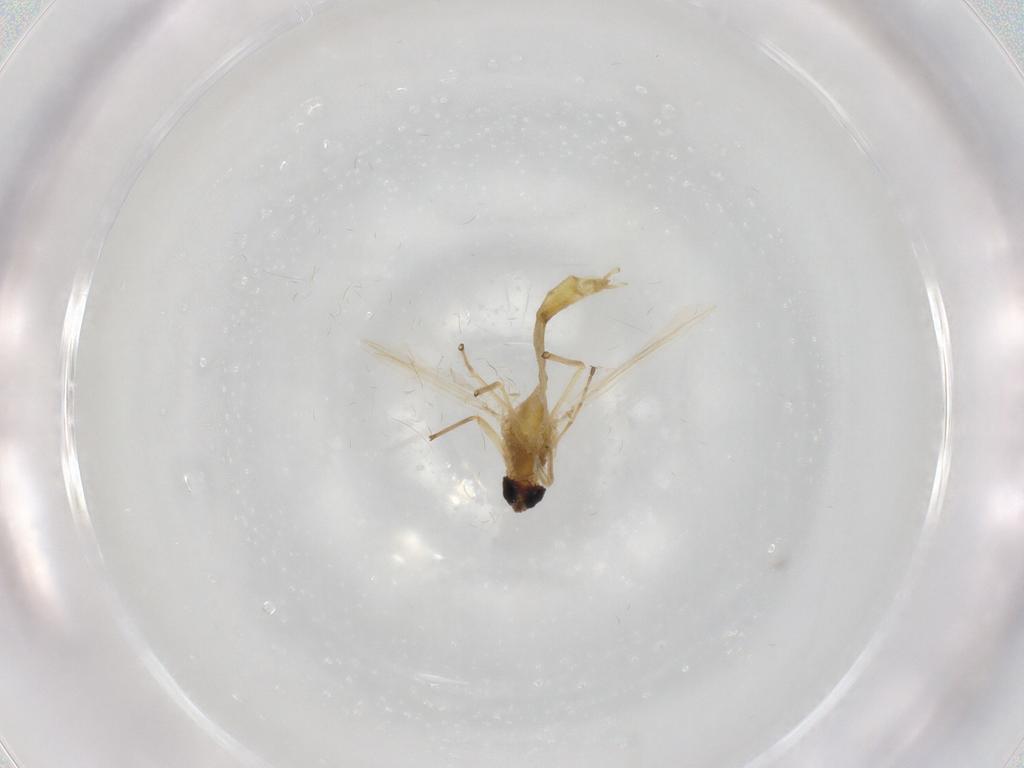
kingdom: Animalia
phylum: Arthropoda
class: Insecta
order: Diptera
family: Chironomidae
